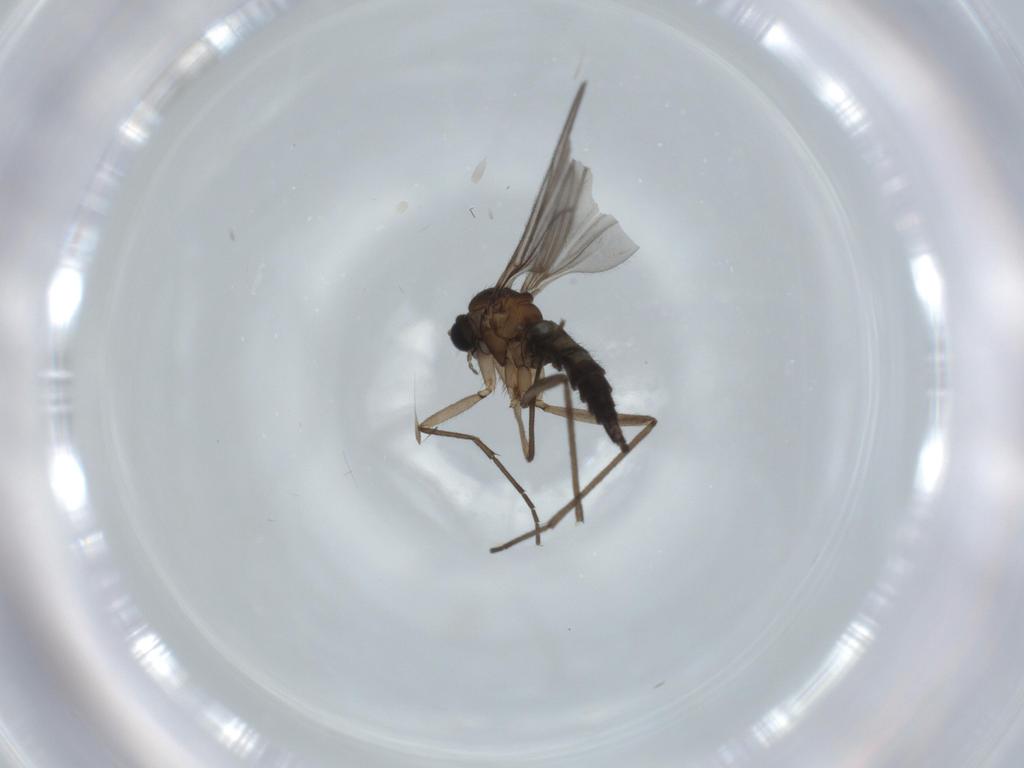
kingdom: Animalia
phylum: Arthropoda
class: Insecta
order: Diptera
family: Sciaridae
